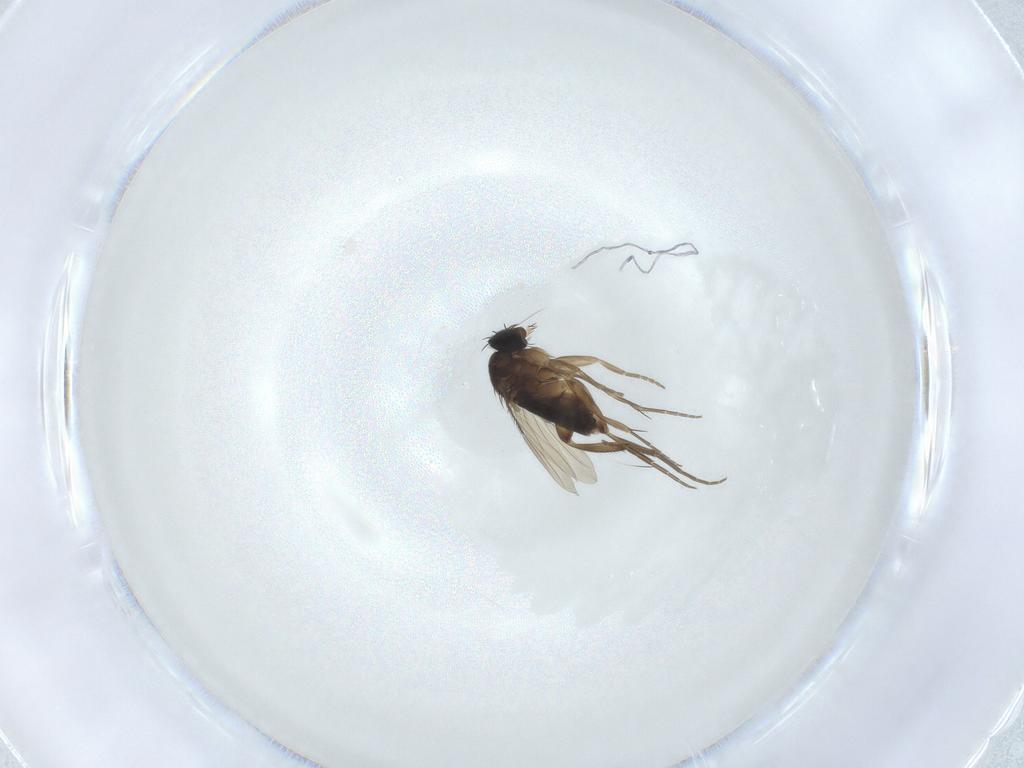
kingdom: Animalia
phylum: Arthropoda
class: Insecta
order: Diptera
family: Phoridae
